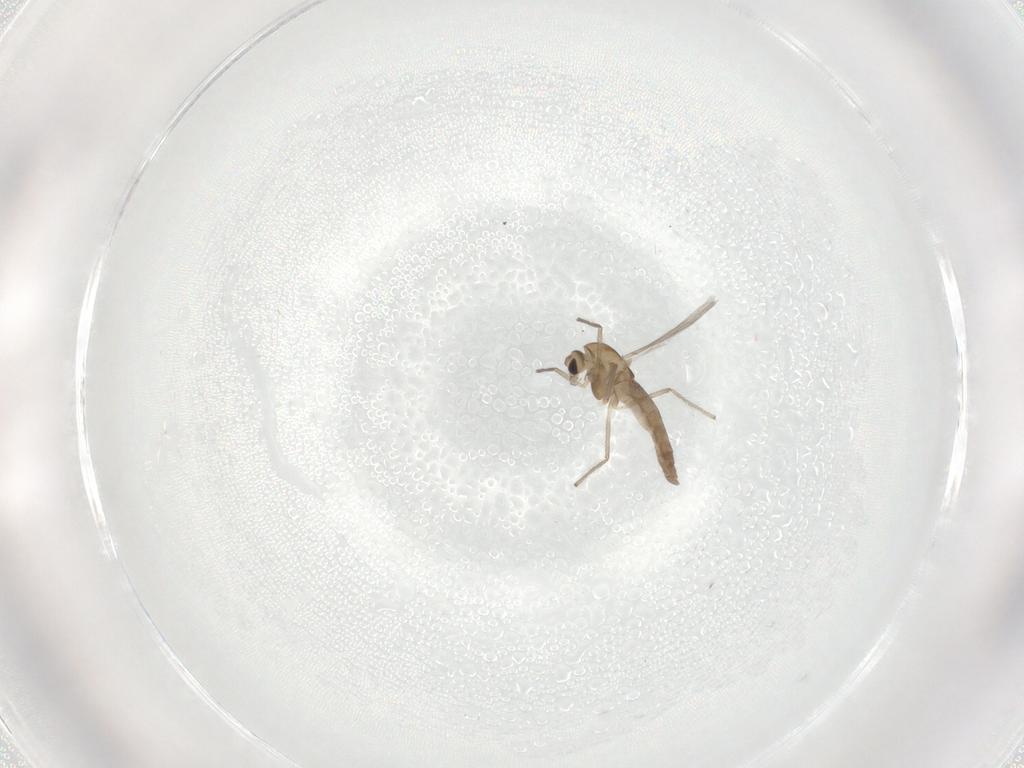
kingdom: Animalia
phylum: Arthropoda
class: Insecta
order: Diptera
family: Chironomidae
